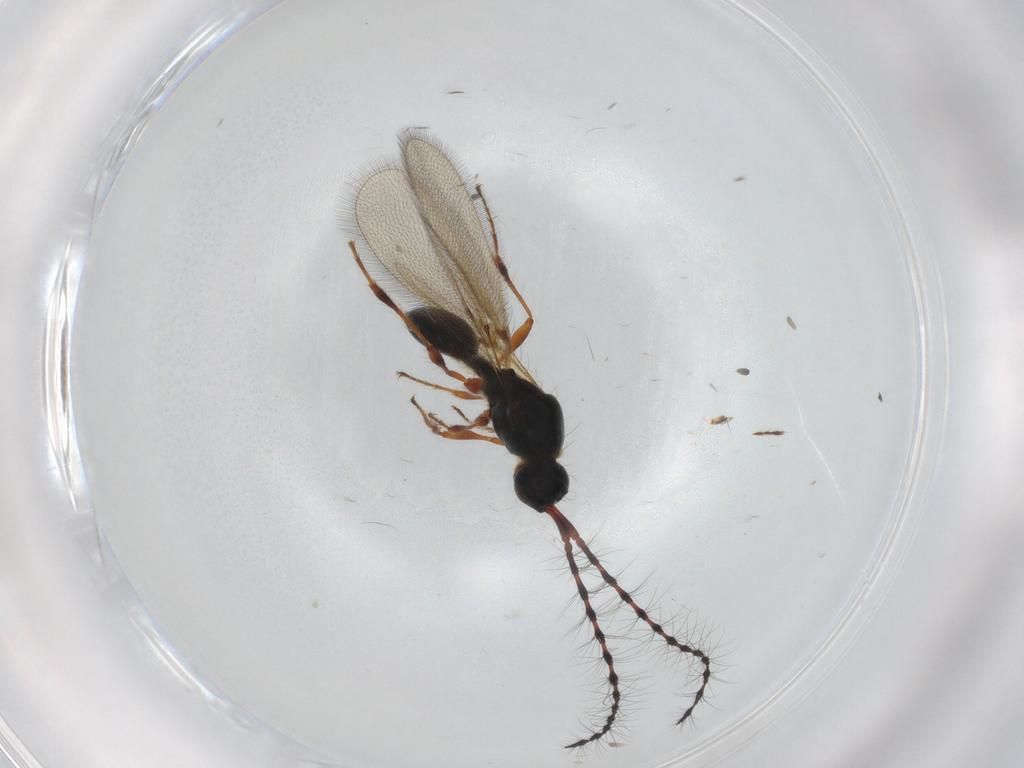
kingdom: Animalia
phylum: Arthropoda
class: Insecta
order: Hymenoptera
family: Diapriidae
